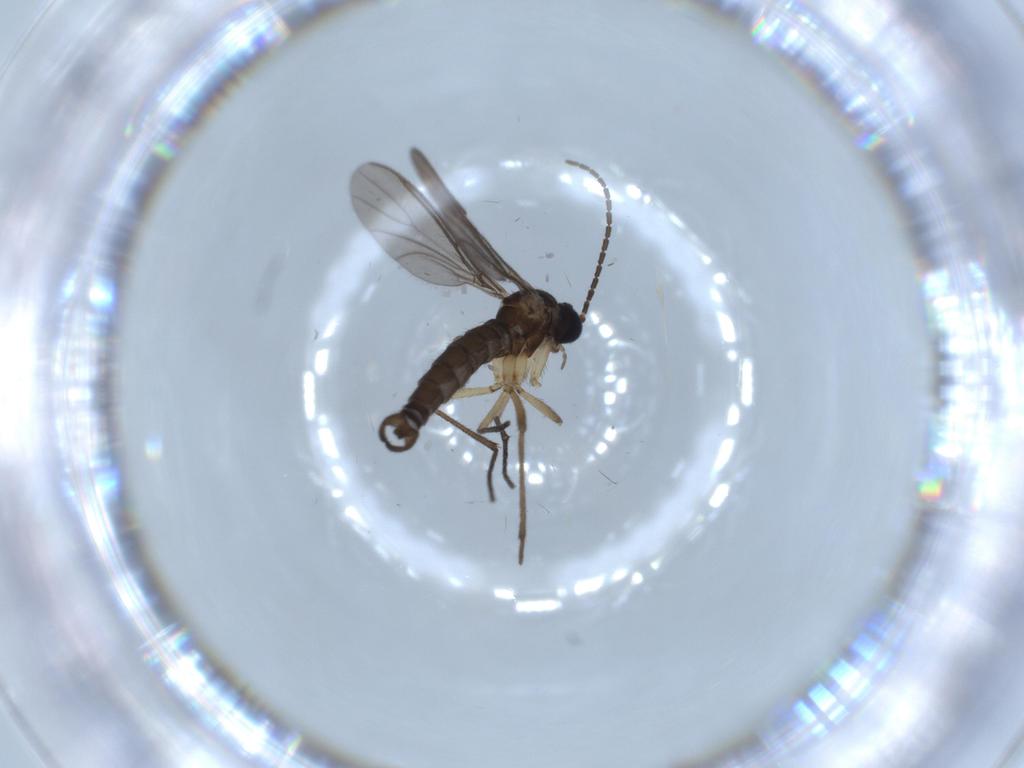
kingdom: Animalia
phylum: Arthropoda
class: Insecta
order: Diptera
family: Sciaridae
